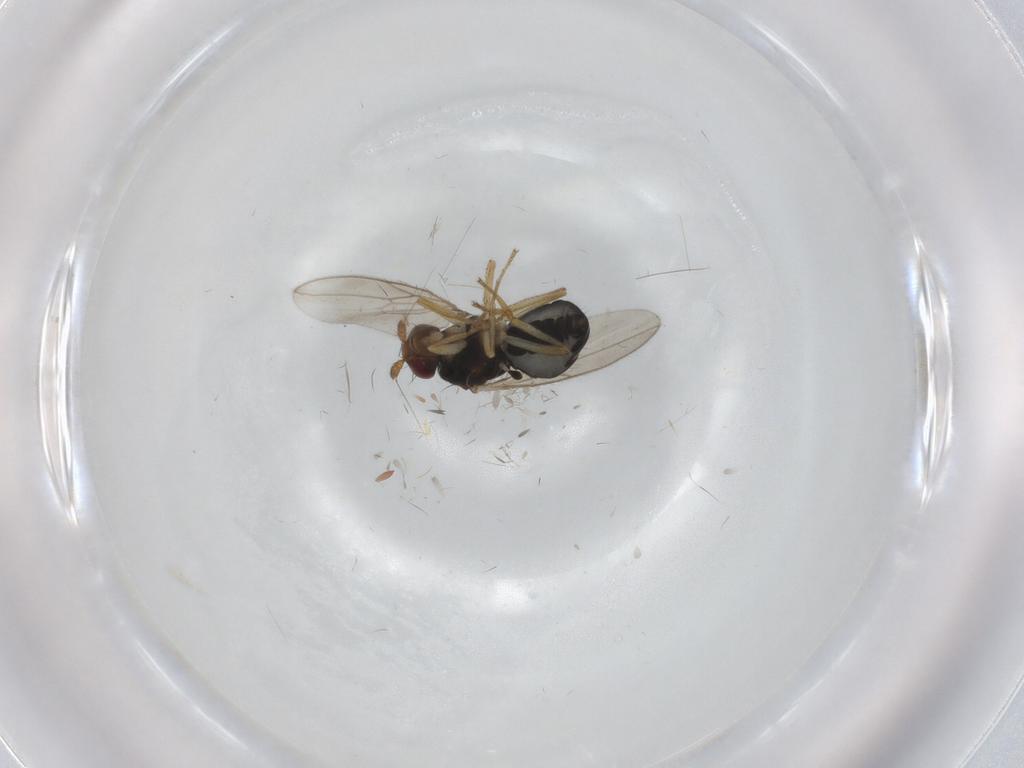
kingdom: Animalia
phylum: Arthropoda
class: Insecta
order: Diptera
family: Sphaeroceridae
